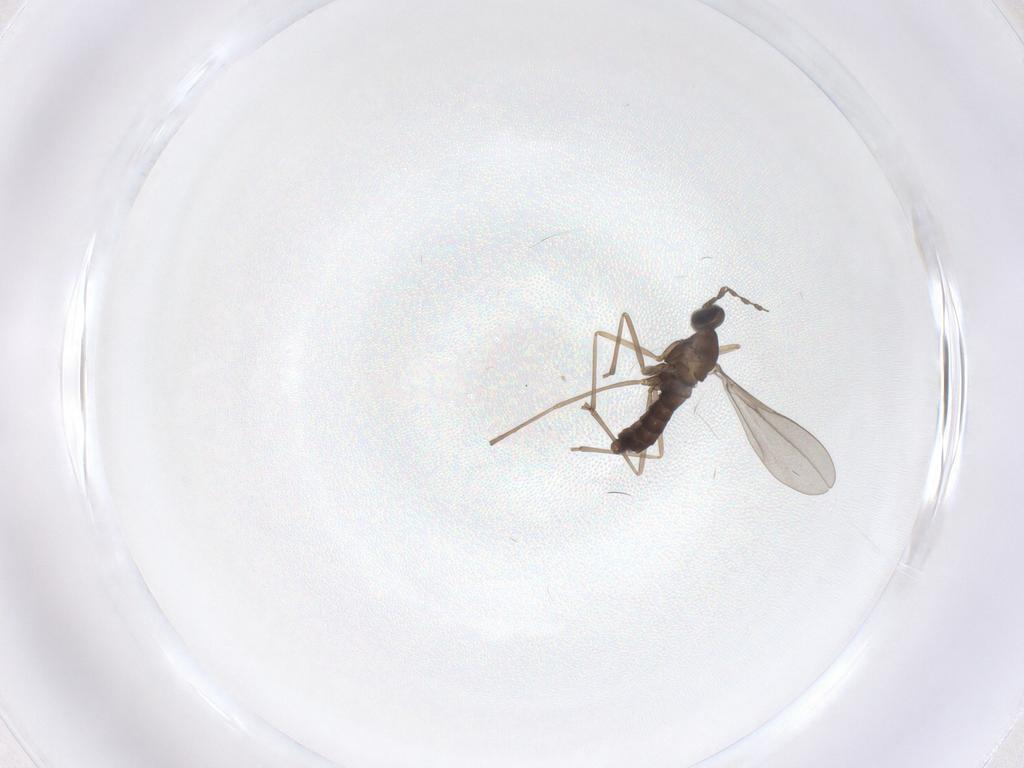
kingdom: Animalia
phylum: Arthropoda
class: Insecta
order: Diptera
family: Cecidomyiidae
